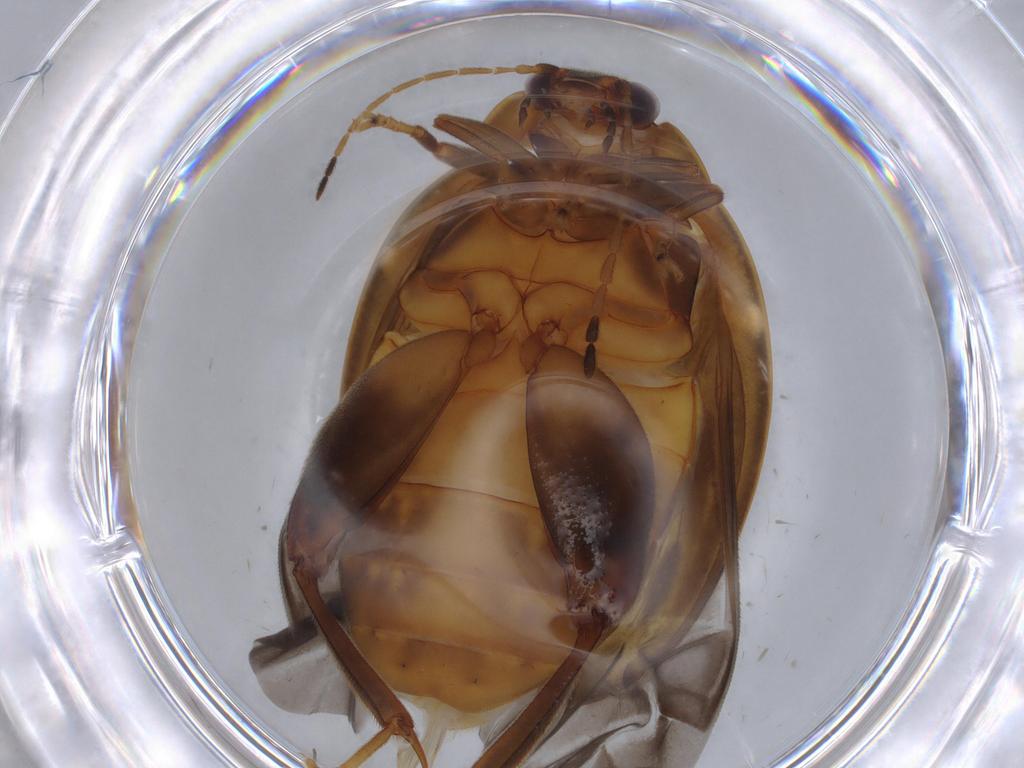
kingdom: Animalia
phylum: Arthropoda
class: Insecta
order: Coleoptera
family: Scirtidae
